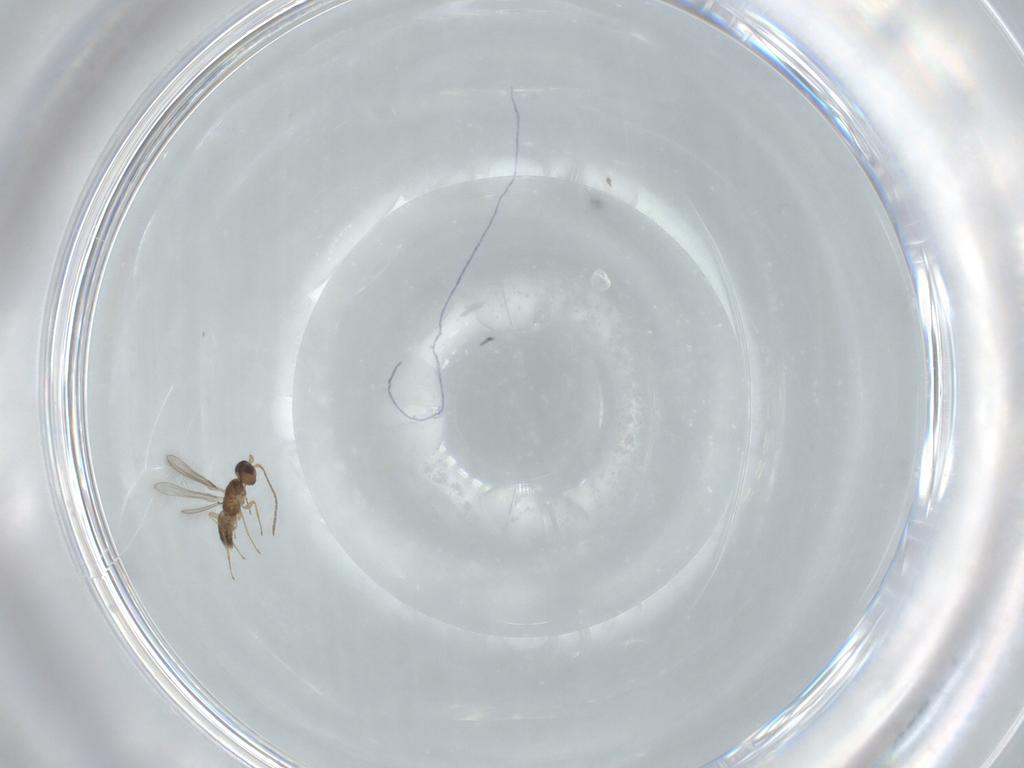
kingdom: Animalia
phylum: Arthropoda
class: Insecta
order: Hymenoptera
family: Mymaridae
